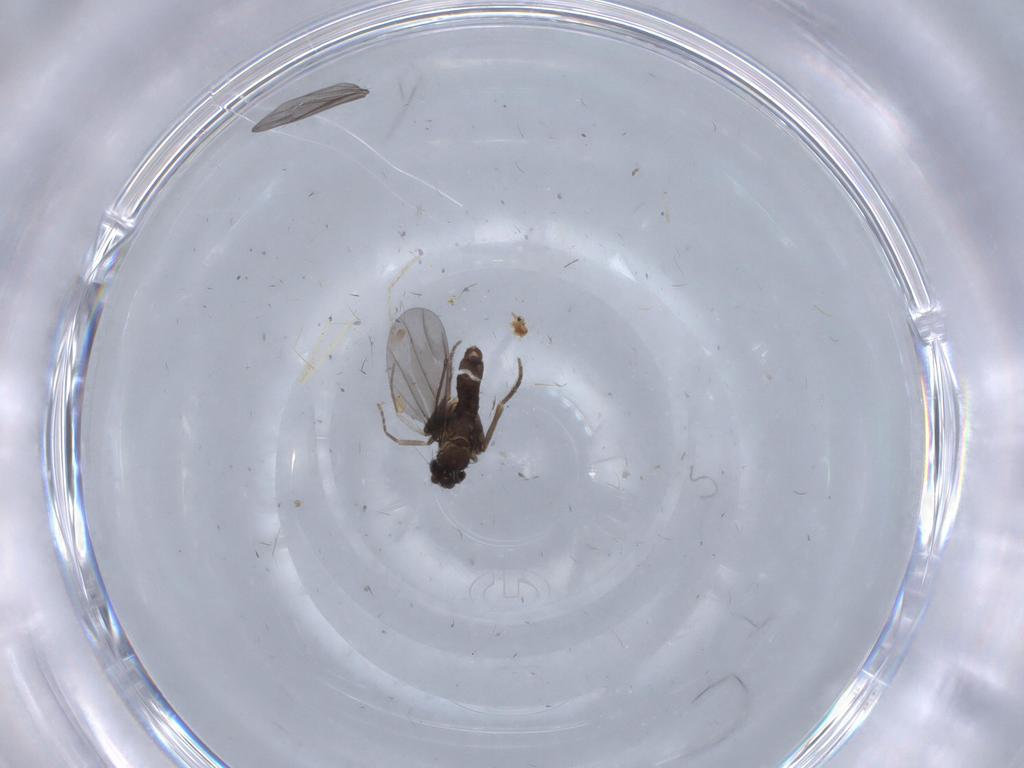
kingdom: Animalia
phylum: Arthropoda
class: Insecta
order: Diptera
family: Phoridae
